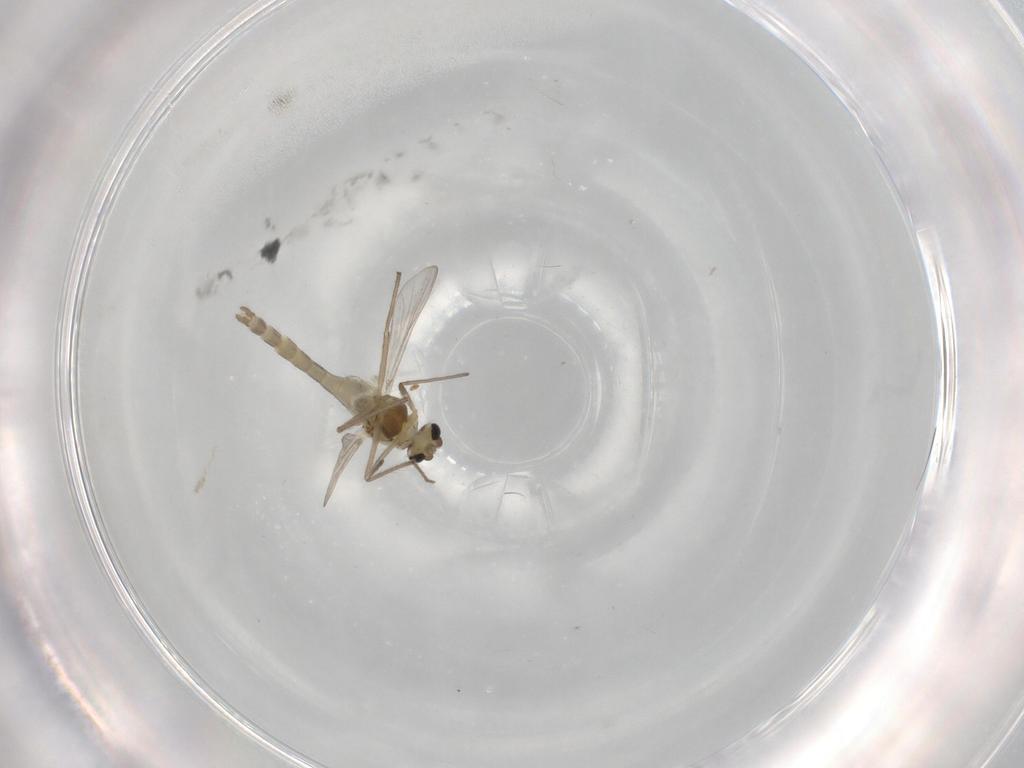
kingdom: Animalia
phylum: Arthropoda
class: Insecta
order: Diptera
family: Chironomidae
